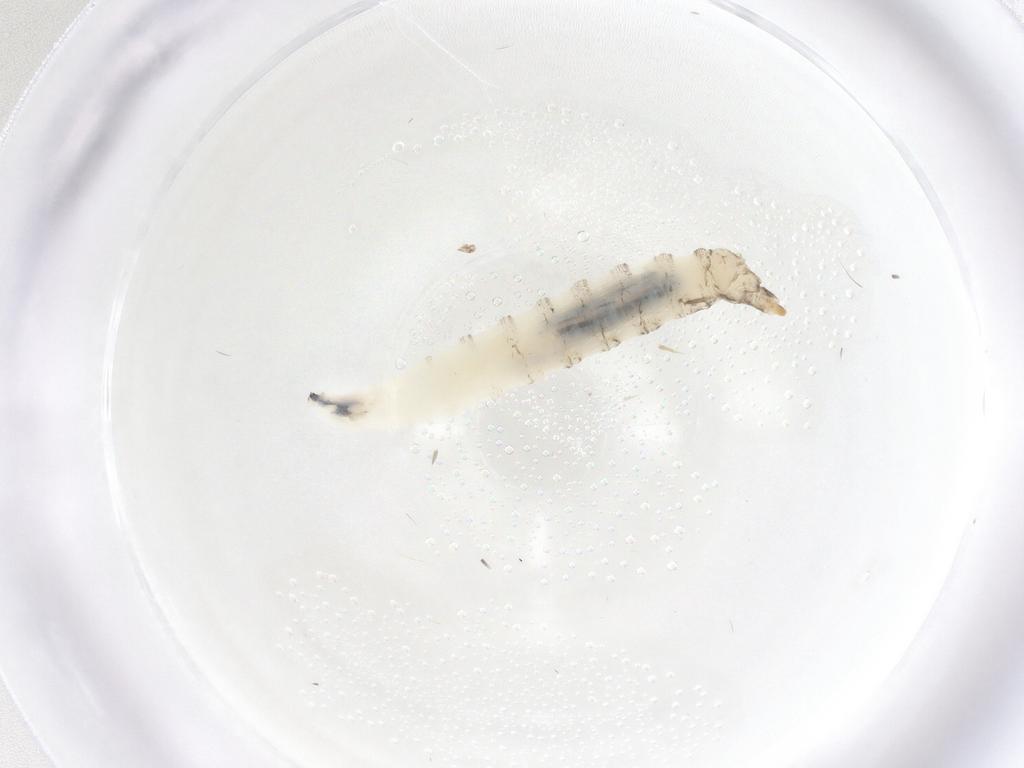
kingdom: Animalia
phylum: Arthropoda
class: Insecta
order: Diptera
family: Drosophilidae
